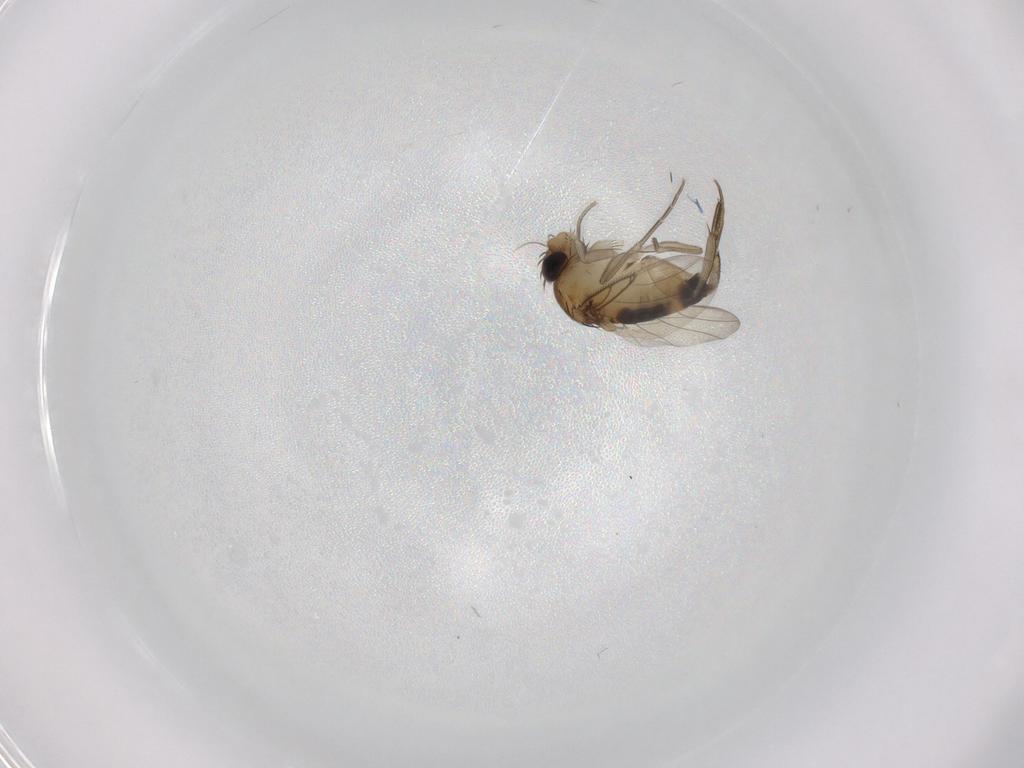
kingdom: Animalia
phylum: Arthropoda
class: Insecta
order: Diptera
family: Phoridae
